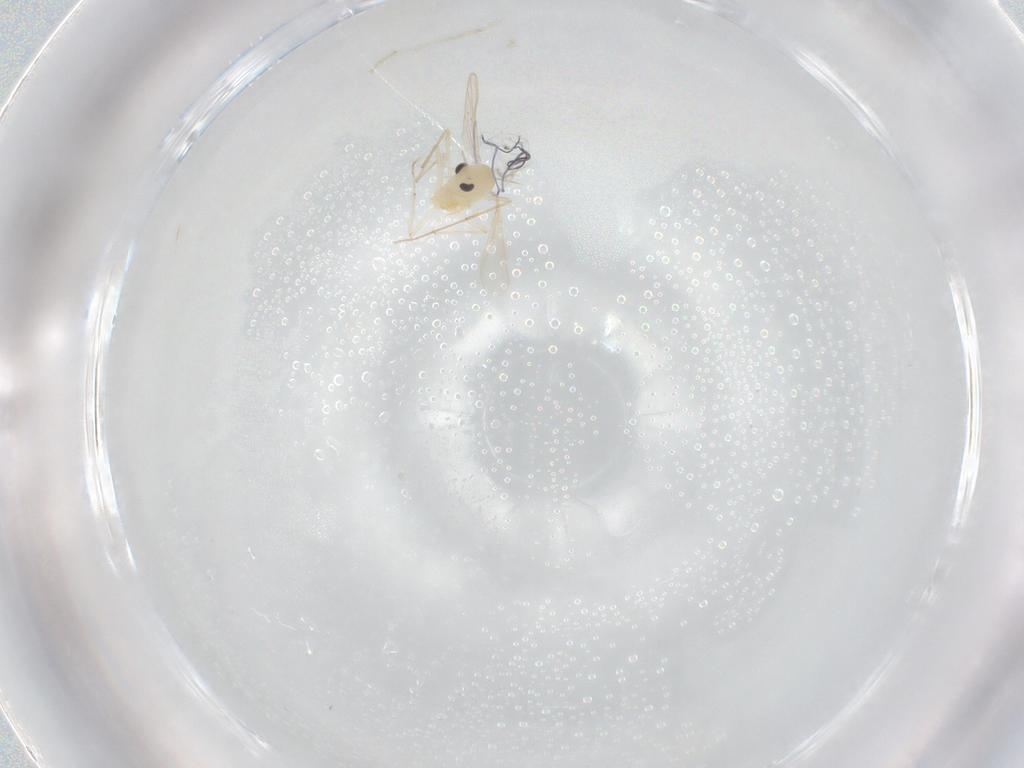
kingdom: Animalia
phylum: Arthropoda
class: Insecta
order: Diptera
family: Chironomidae
